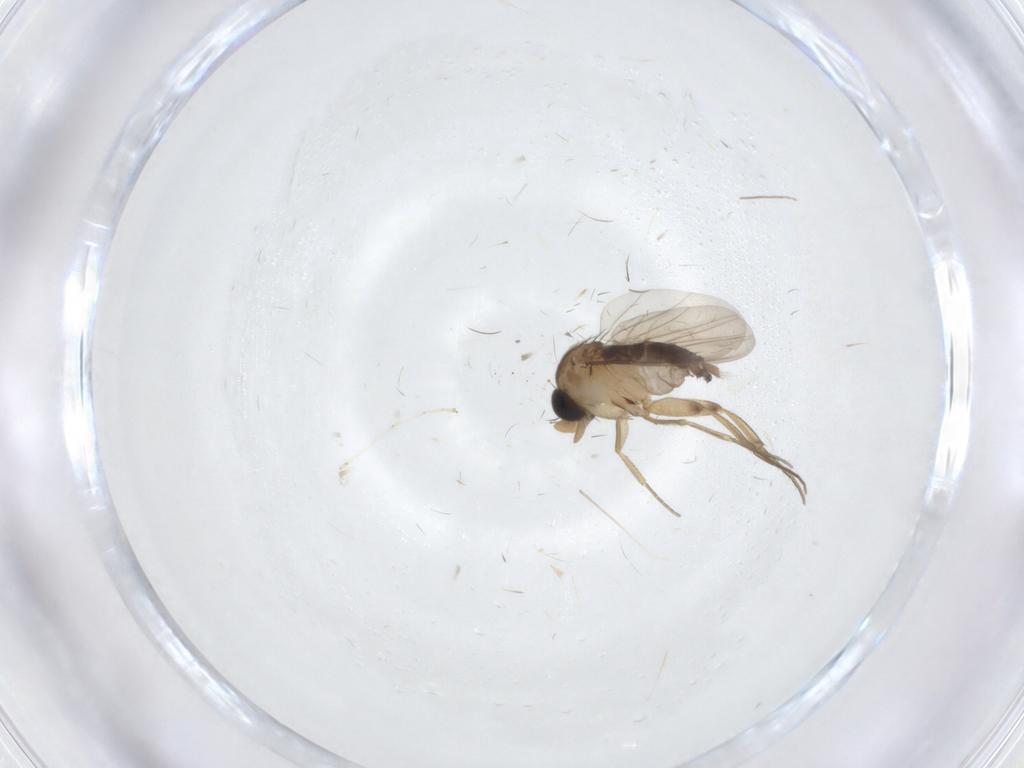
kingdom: Animalia
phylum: Arthropoda
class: Insecta
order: Diptera
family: Phoridae
